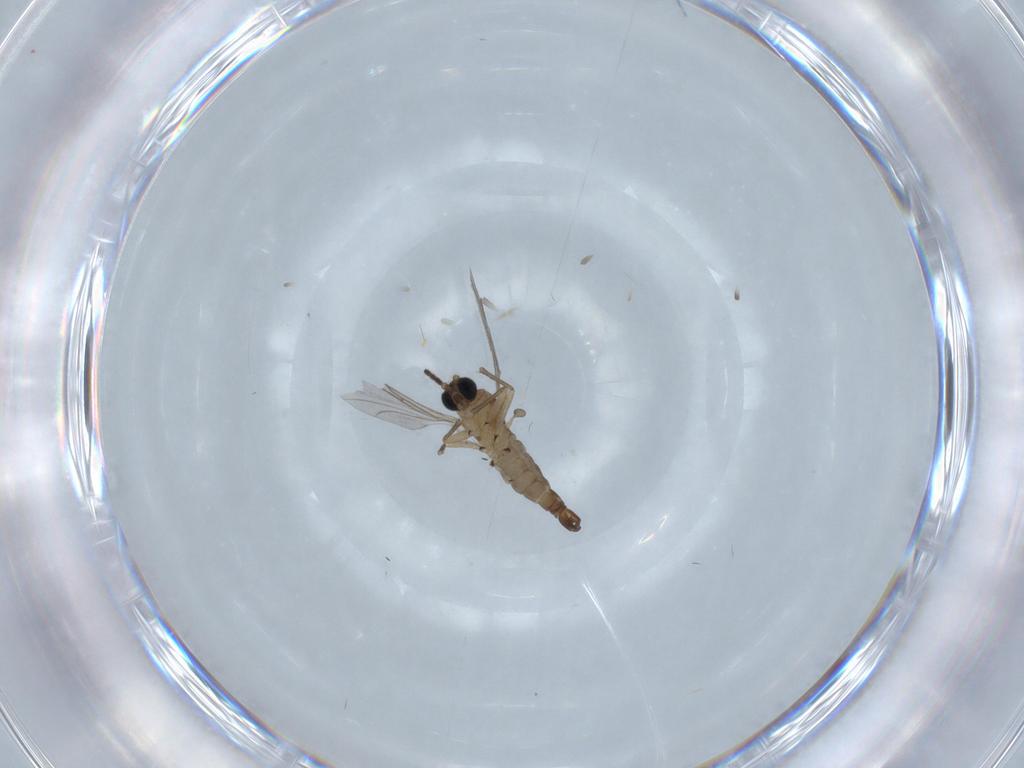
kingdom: Animalia
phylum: Arthropoda
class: Insecta
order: Diptera
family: Sciaridae
